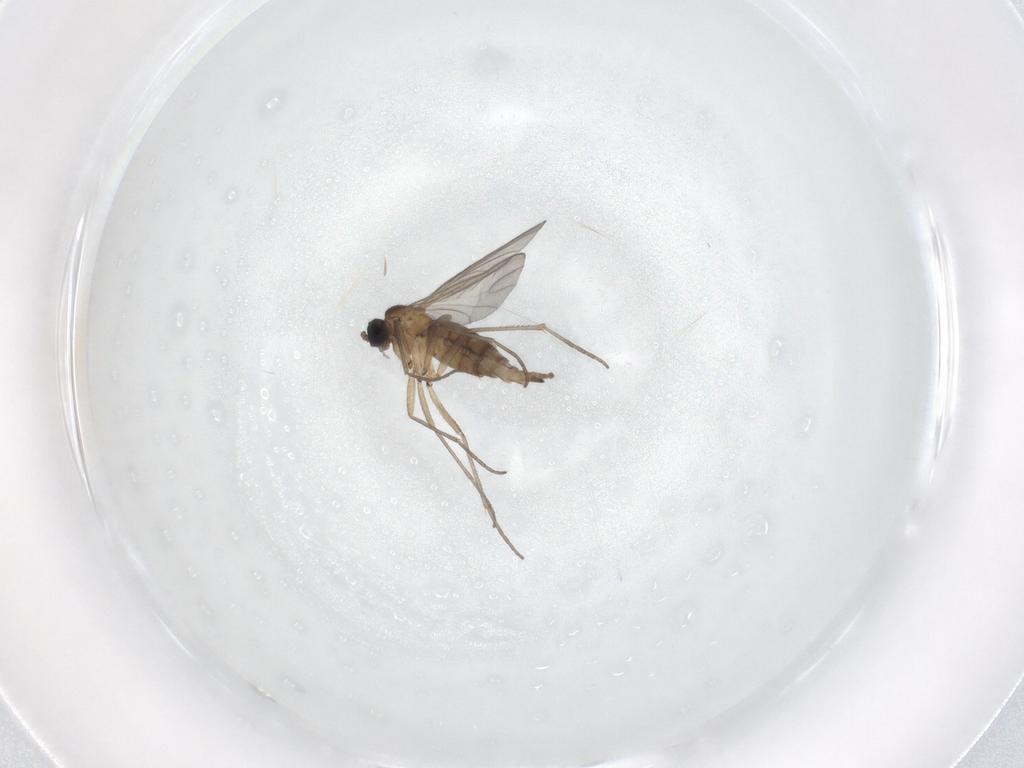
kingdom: Animalia
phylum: Arthropoda
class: Insecta
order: Diptera
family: Sciaridae
